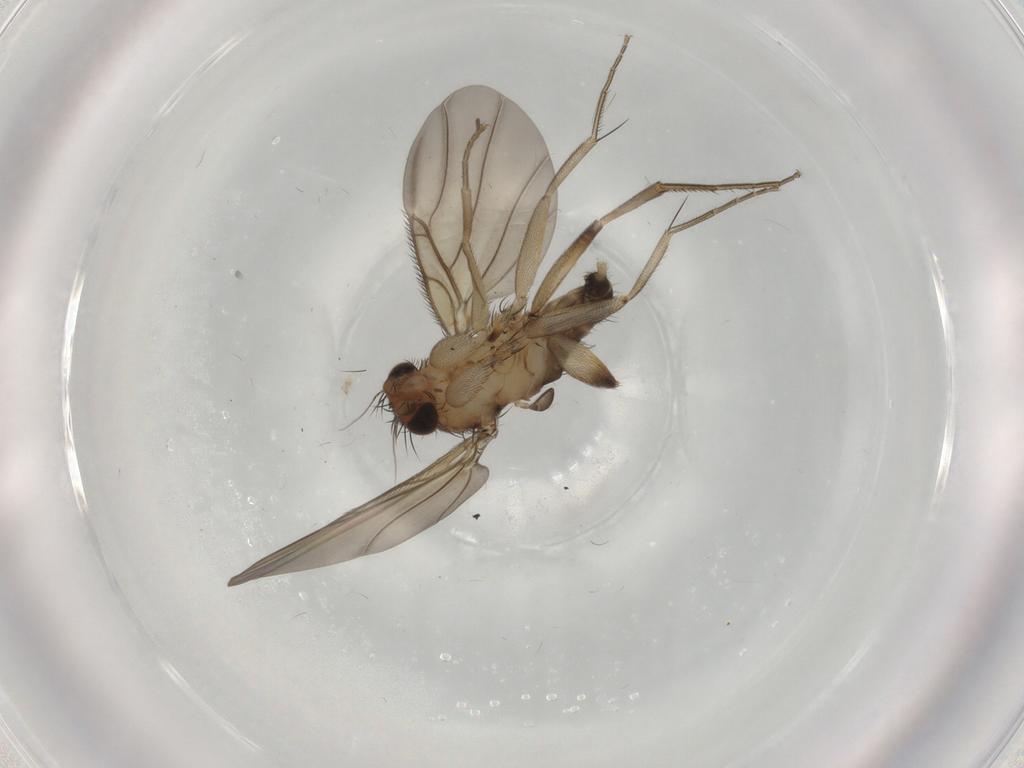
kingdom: Animalia
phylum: Arthropoda
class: Insecta
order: Diptera
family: Phoridae
